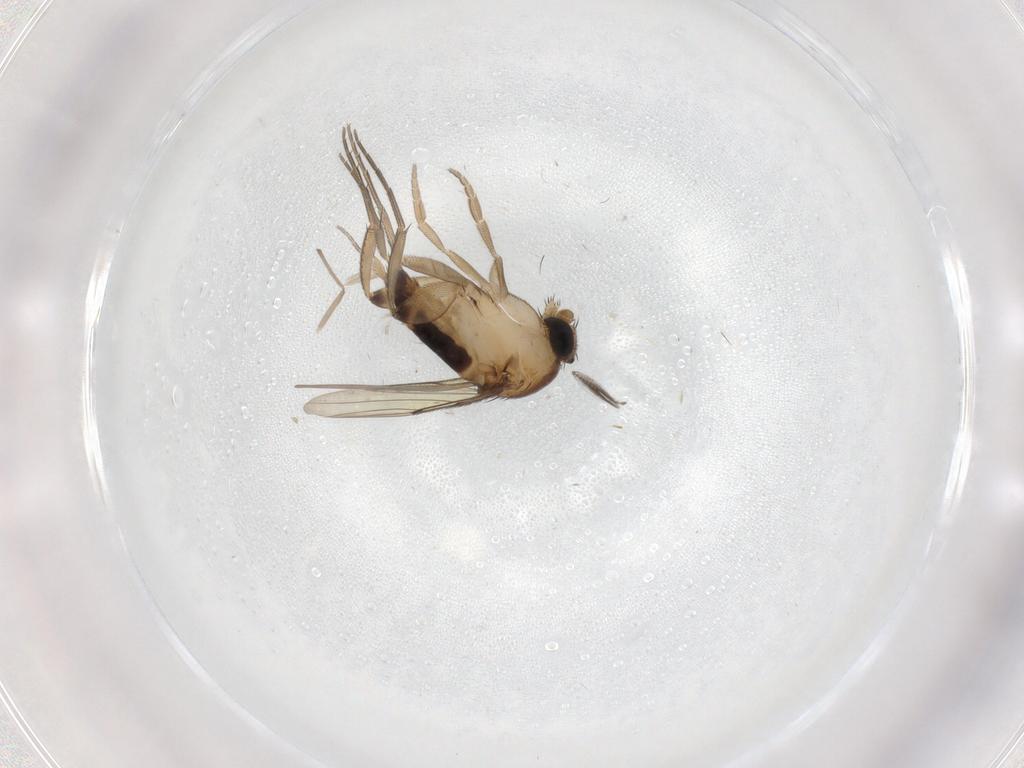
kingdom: Animalia
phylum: Arthropoda
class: Insecta
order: Diptera
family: Chironomidae
